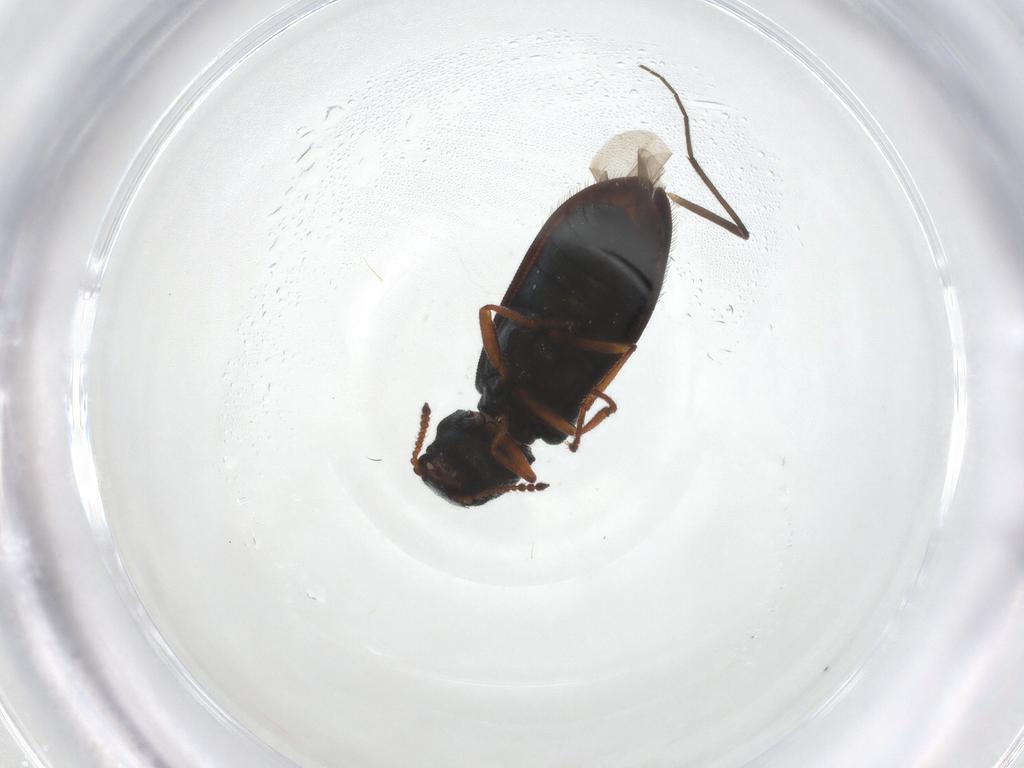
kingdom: Animalia
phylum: Arthropoda
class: Insecta
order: Coleoptera
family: Melyridae
